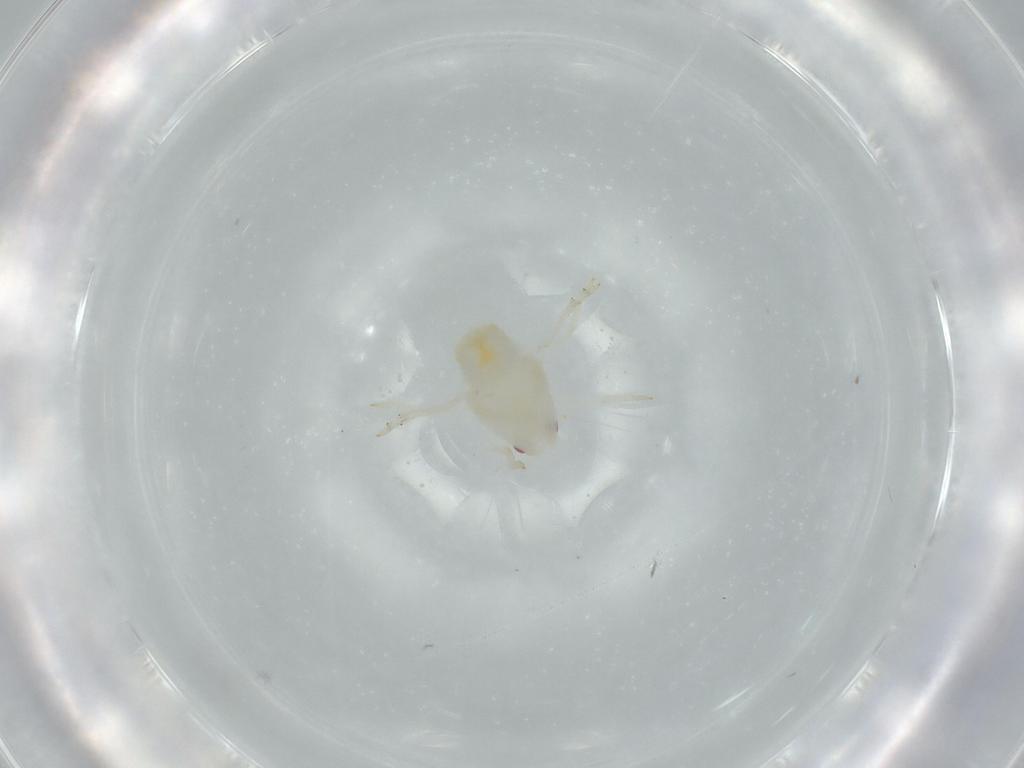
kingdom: Animalia
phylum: Arthropoda
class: Insecta
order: Hemiptera
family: Flatidae
